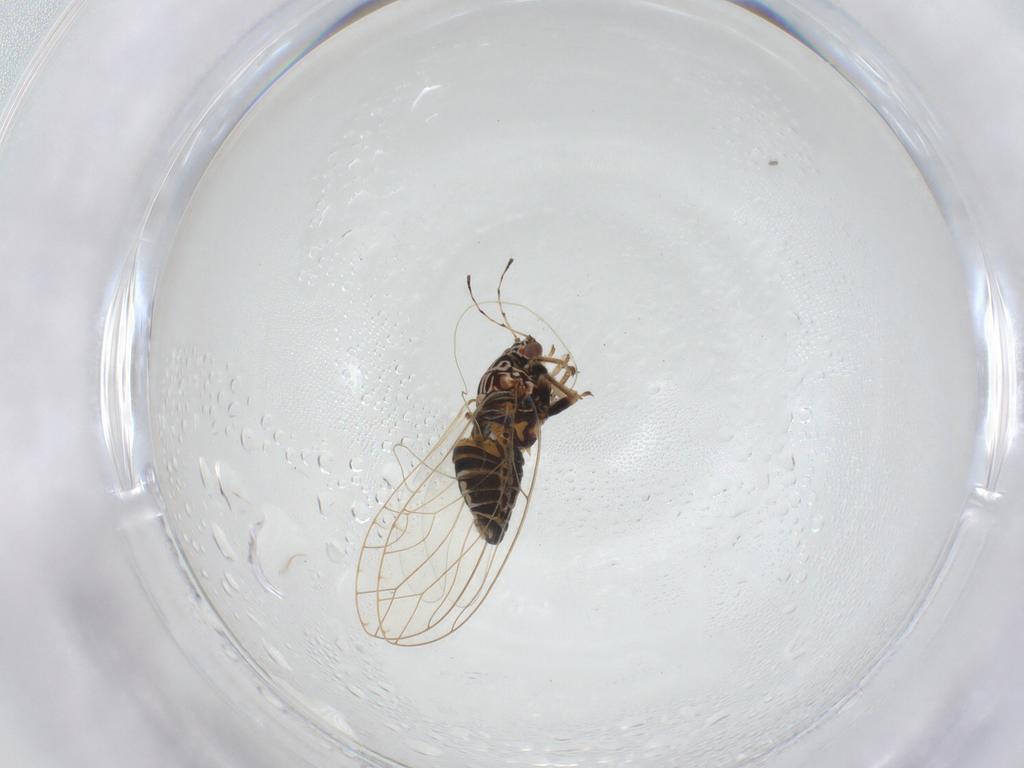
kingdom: Animalia
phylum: Arthropoda
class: Insecta
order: Hemiptera
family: Triozidae
